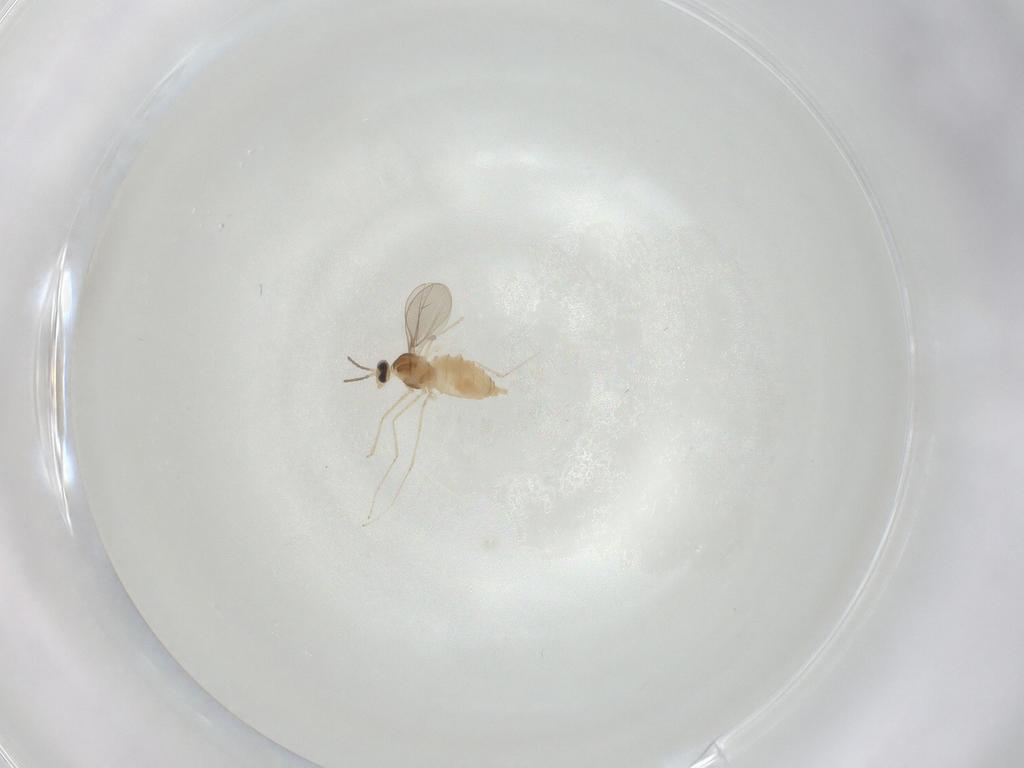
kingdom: Animalia
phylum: Arthropoda
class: Insecta
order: Diptera
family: Cecidomyiidae
